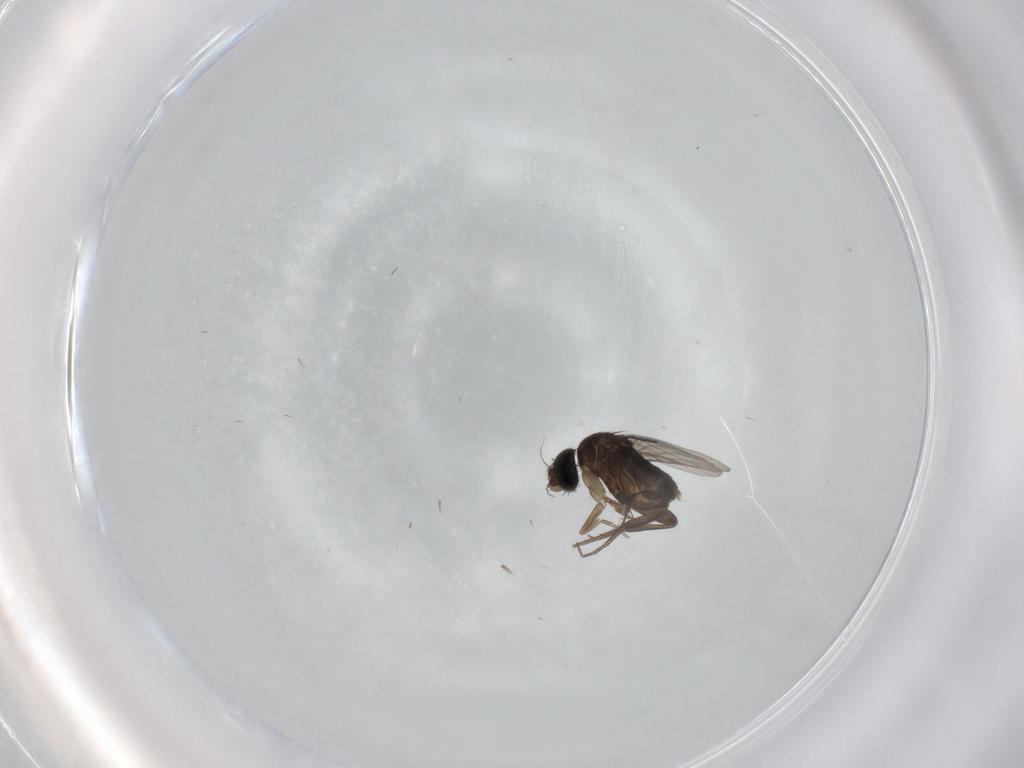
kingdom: Animalia
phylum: Arthropoda
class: Insecta
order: Diptera
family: Phoridae
